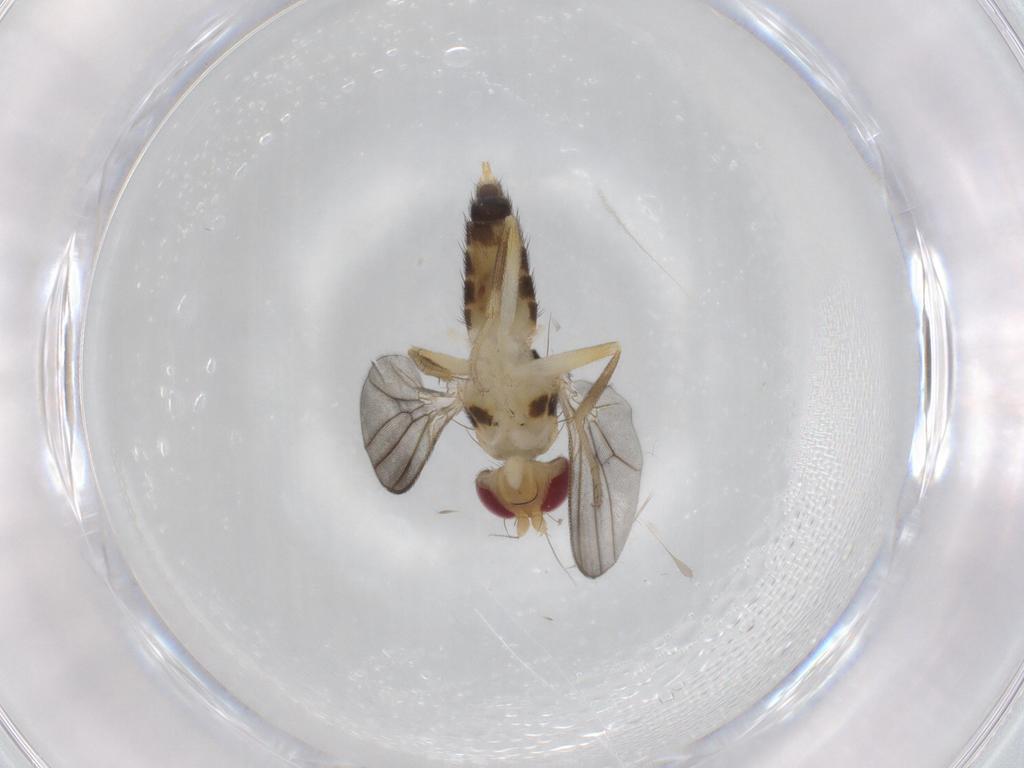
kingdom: Animalia
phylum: Arthropoda
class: Insecta
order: Diptera
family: Clusiidae
